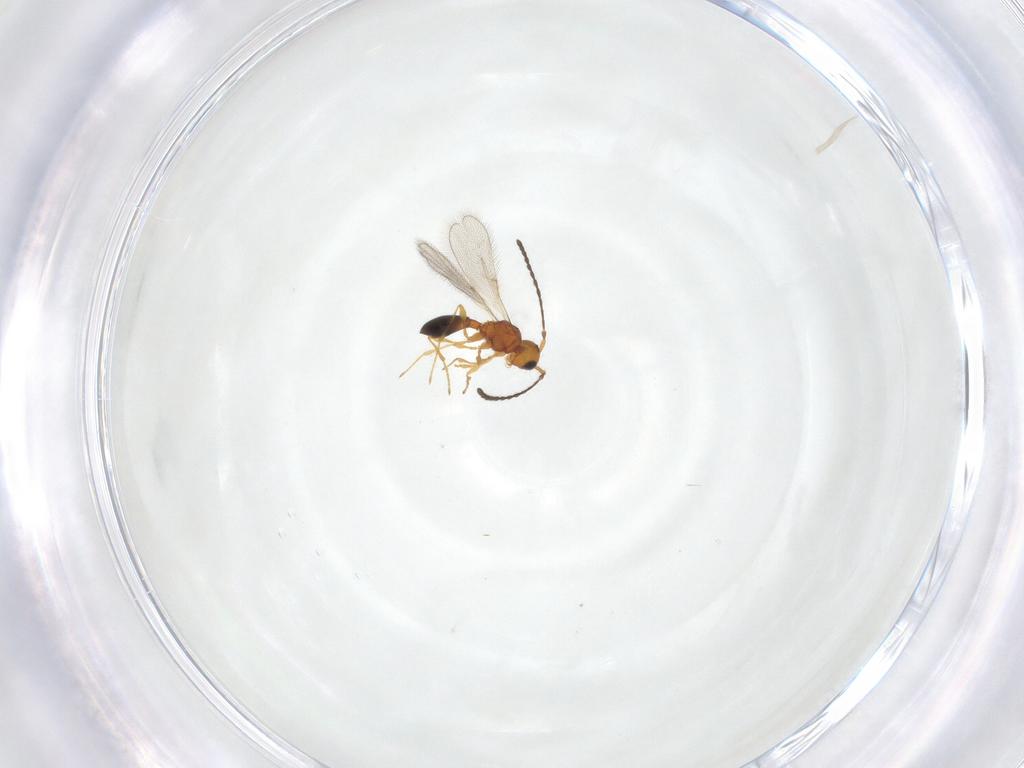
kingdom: Animalia
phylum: Arthropoda
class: Insecta
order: Hymenoptera
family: Diapriidae
